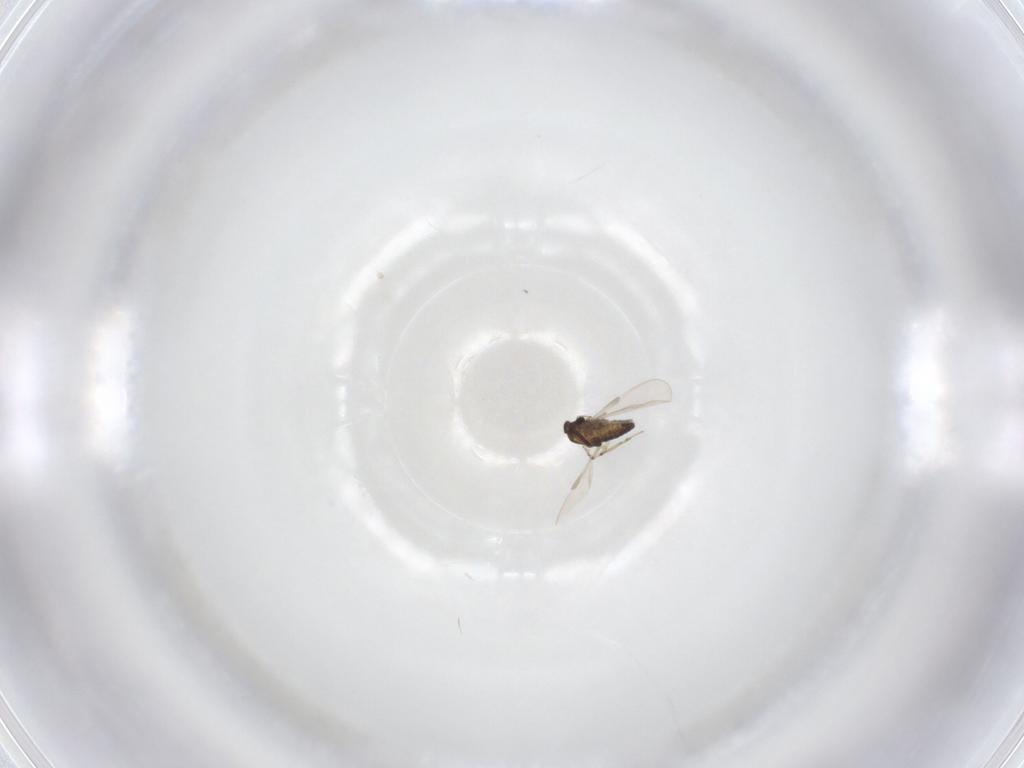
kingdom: Animalia
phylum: Arthropoda
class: Insecta
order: Diptera
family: Chironomidae
